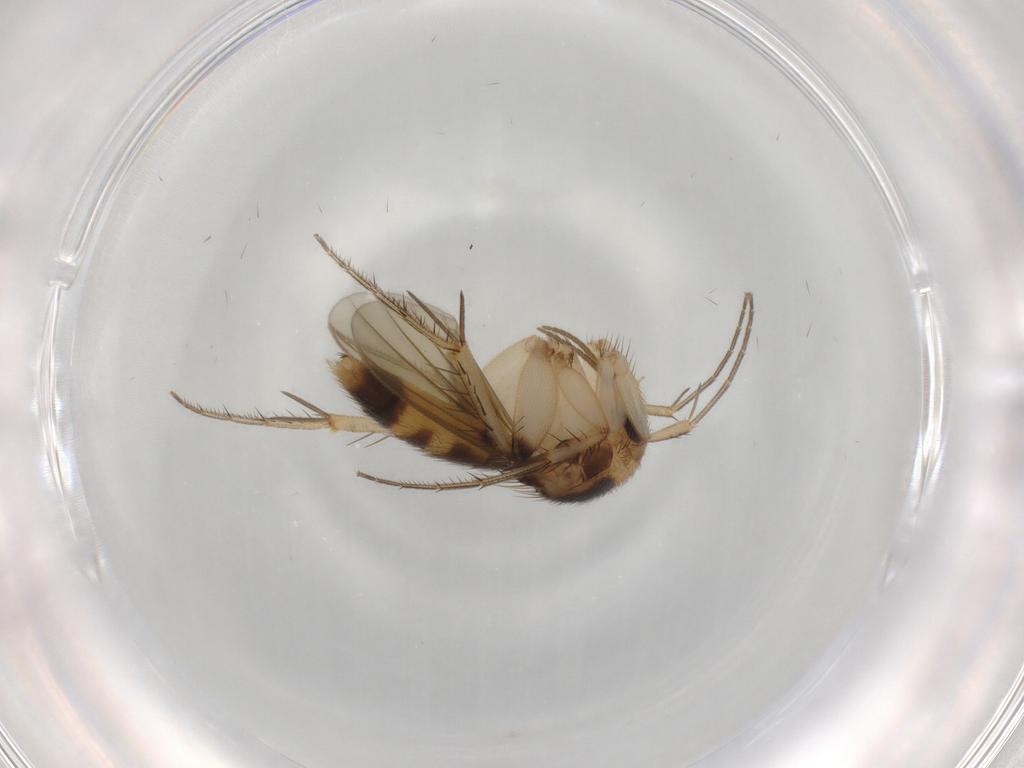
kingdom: Animalia
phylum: Arthropoda
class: Insecta
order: Diptera
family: Mycetophilidae
